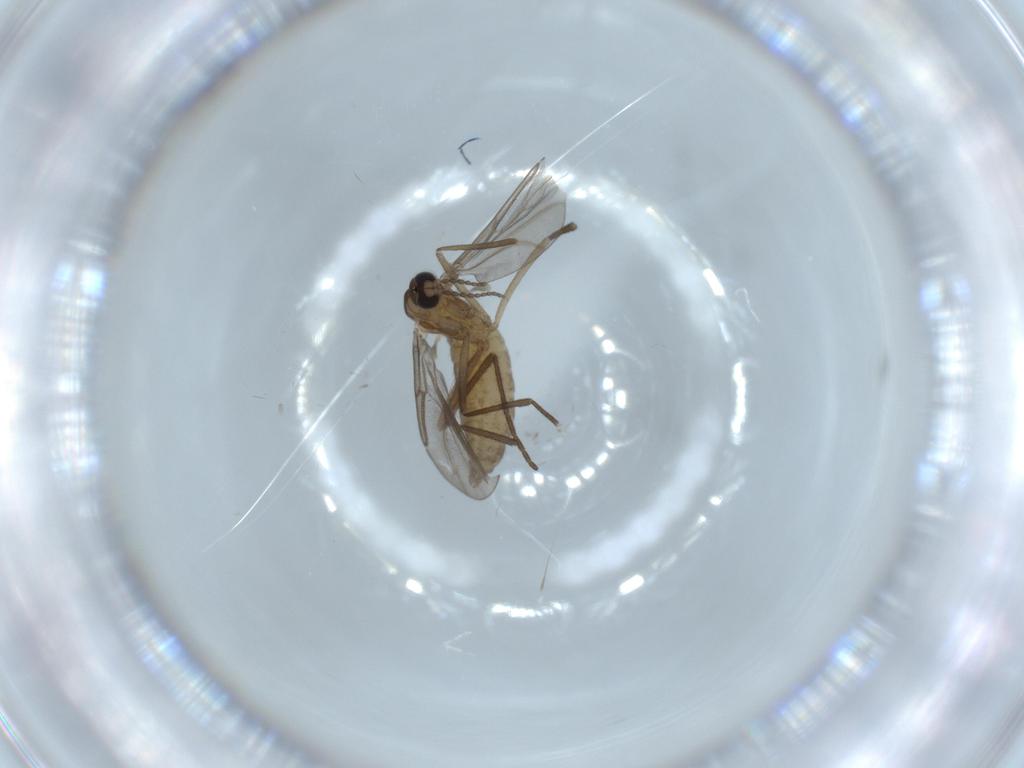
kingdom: Animalia
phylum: Arthropoda
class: Insecta
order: Diptera
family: Cecidomyiidae
